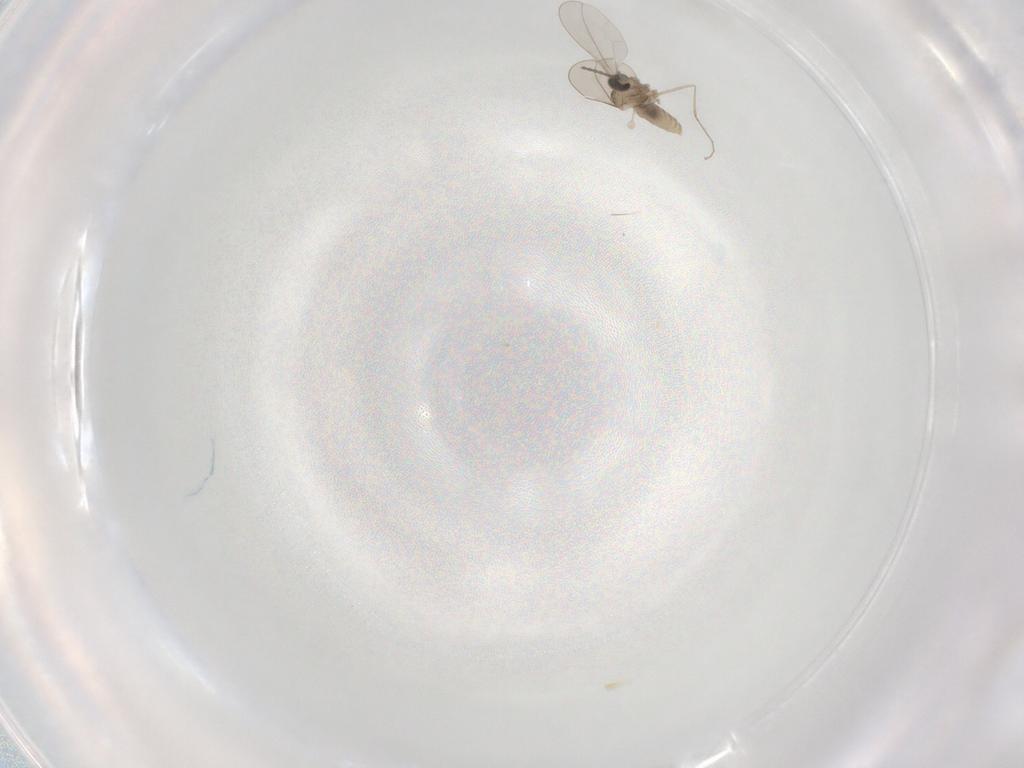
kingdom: Animalia
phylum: Arthropoda
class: Insecta
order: Diptera
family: Cecidomyiidae
